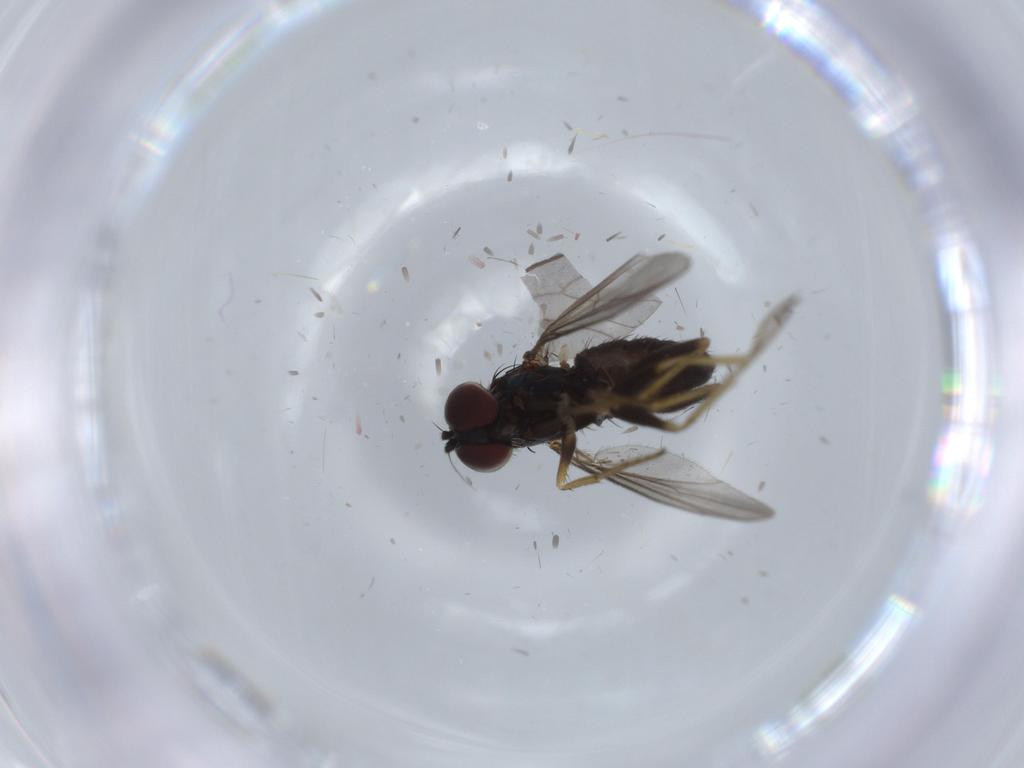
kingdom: Animalia
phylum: Arthropoda
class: Insecta
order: Diptera
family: Dolichopodidae
